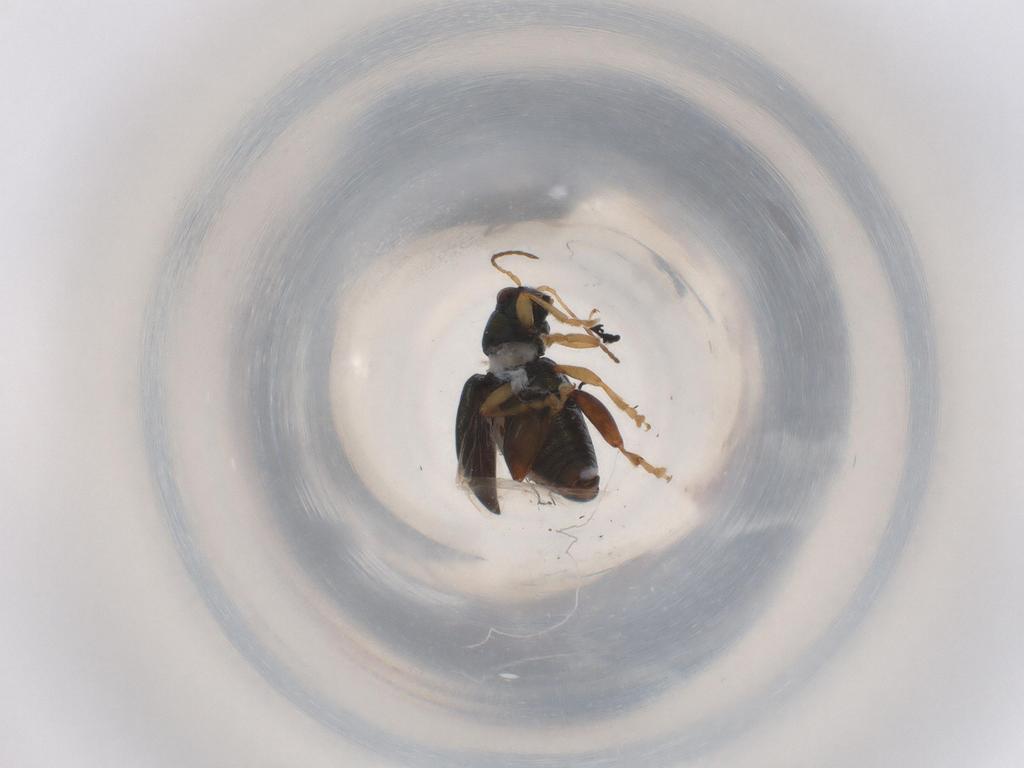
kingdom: Animalia
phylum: Arthropoda
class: Insecta
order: Coleoptera
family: Chrysomelidae
